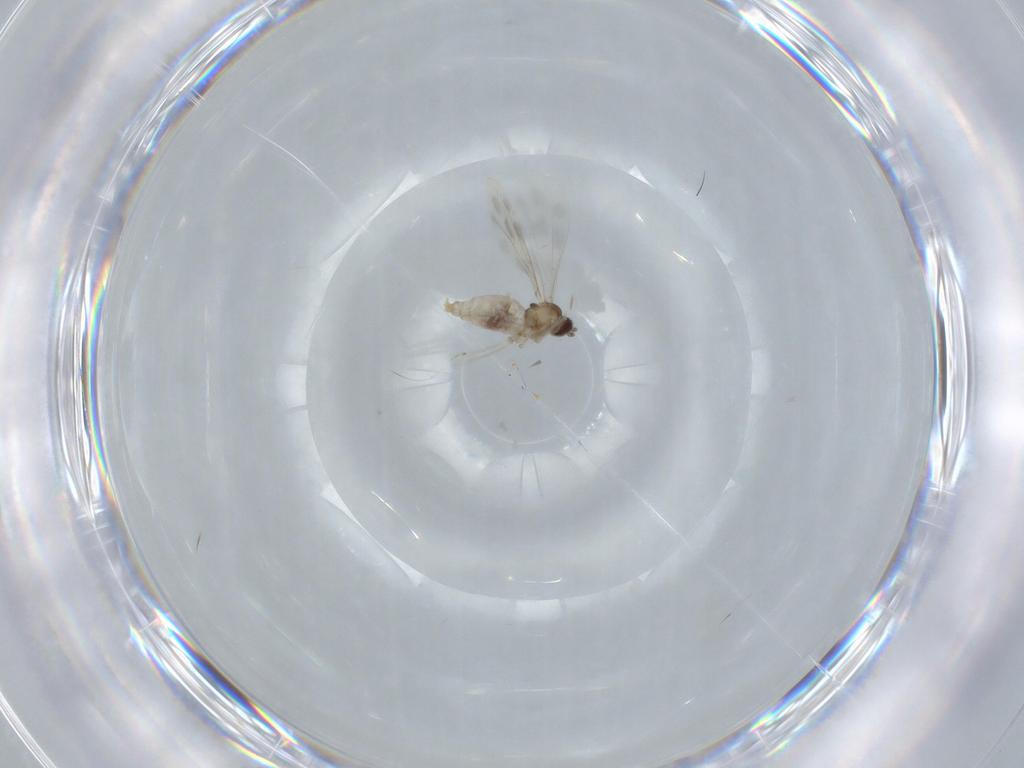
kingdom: Animalia
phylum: Arthropoda
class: Insecta
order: Diptera
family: Cecidomyiidae
